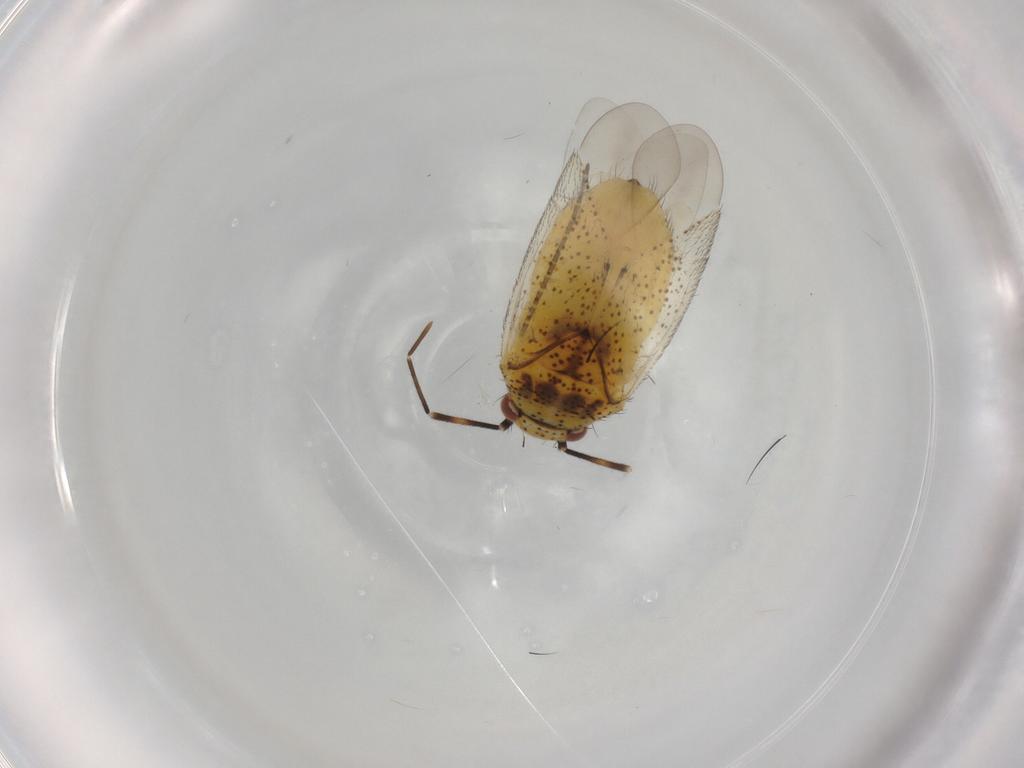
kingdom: Animalia
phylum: Arthropoda
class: Insecta
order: Hemiptera
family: Miridae
